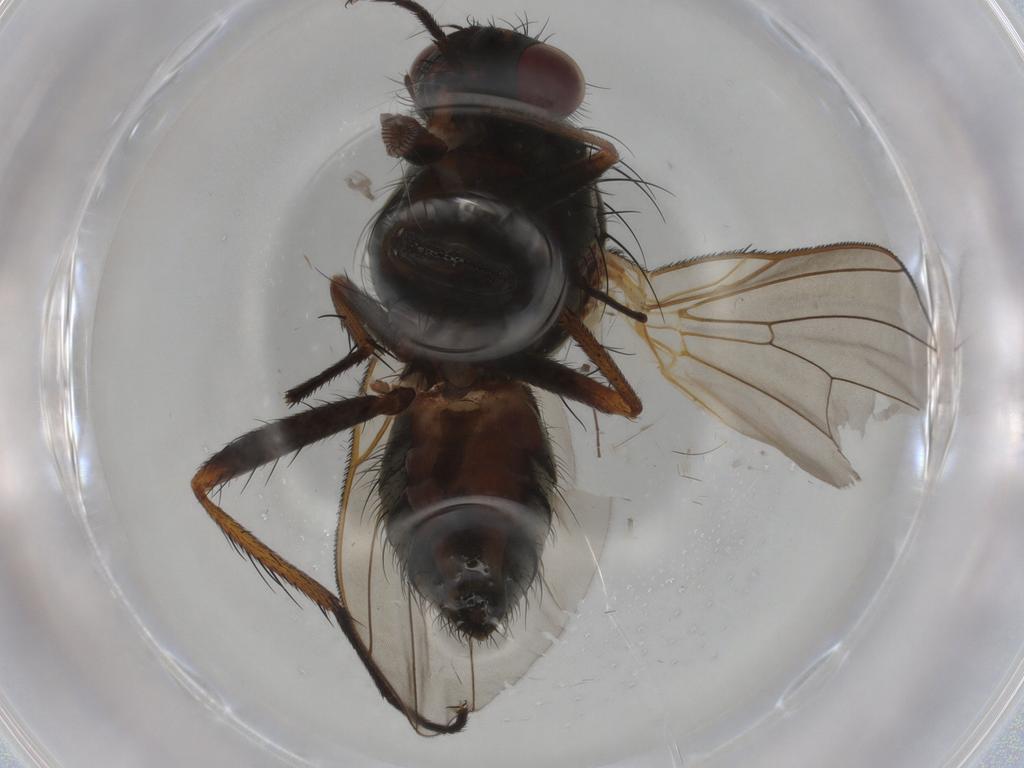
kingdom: Animalia
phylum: Arthropoda
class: Insecta
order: Diptera
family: Anthomyiidae
